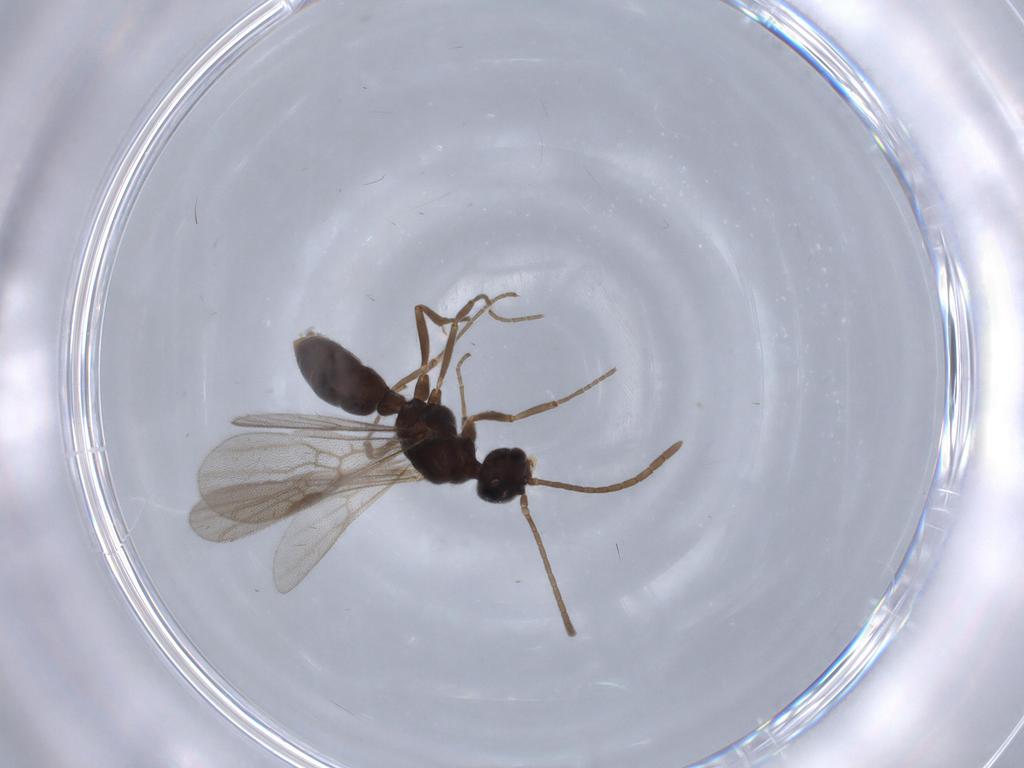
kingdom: Animalia
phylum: Arthropoda
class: Insecta
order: Hymenoptera
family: Formicidae
